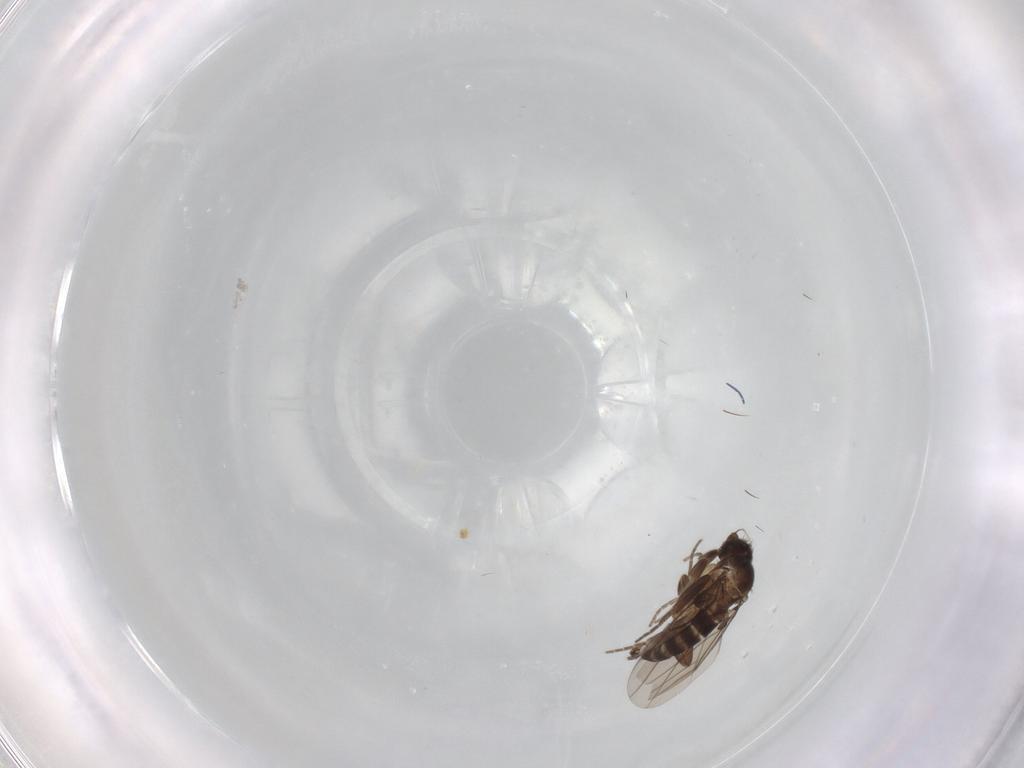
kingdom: Animalia
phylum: Arthropoda
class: Insecta
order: Diptera
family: Phoridae
